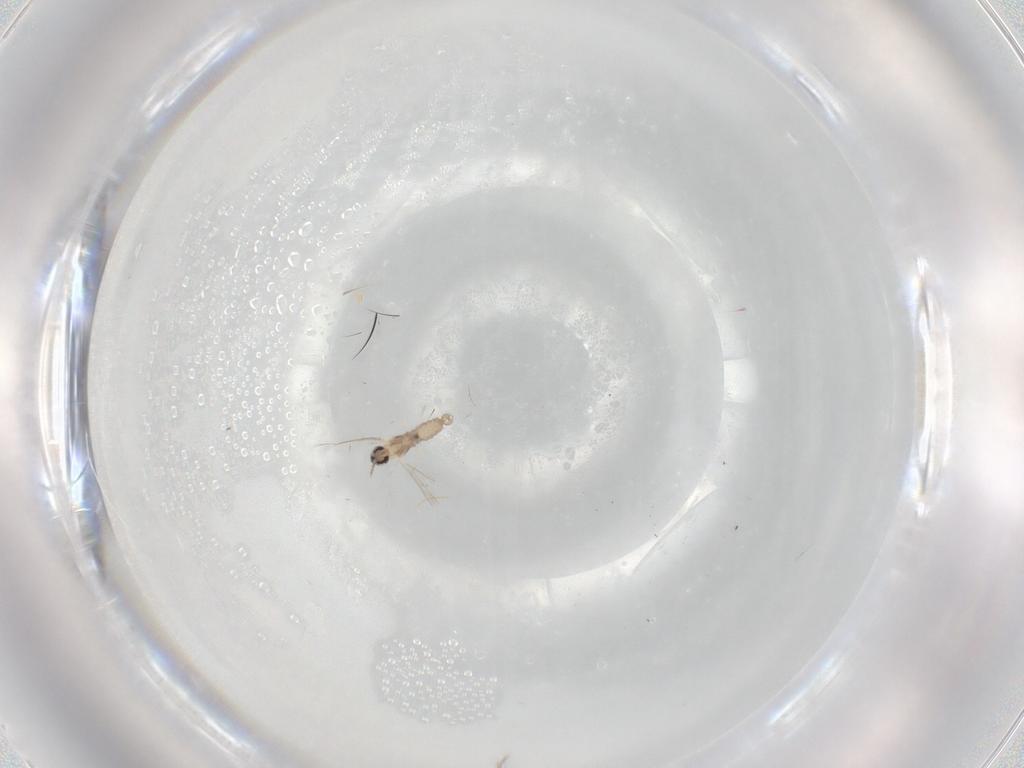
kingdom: Animalia
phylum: Arthropoda
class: Insecta
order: Diptera
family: Cecidomyiidae
